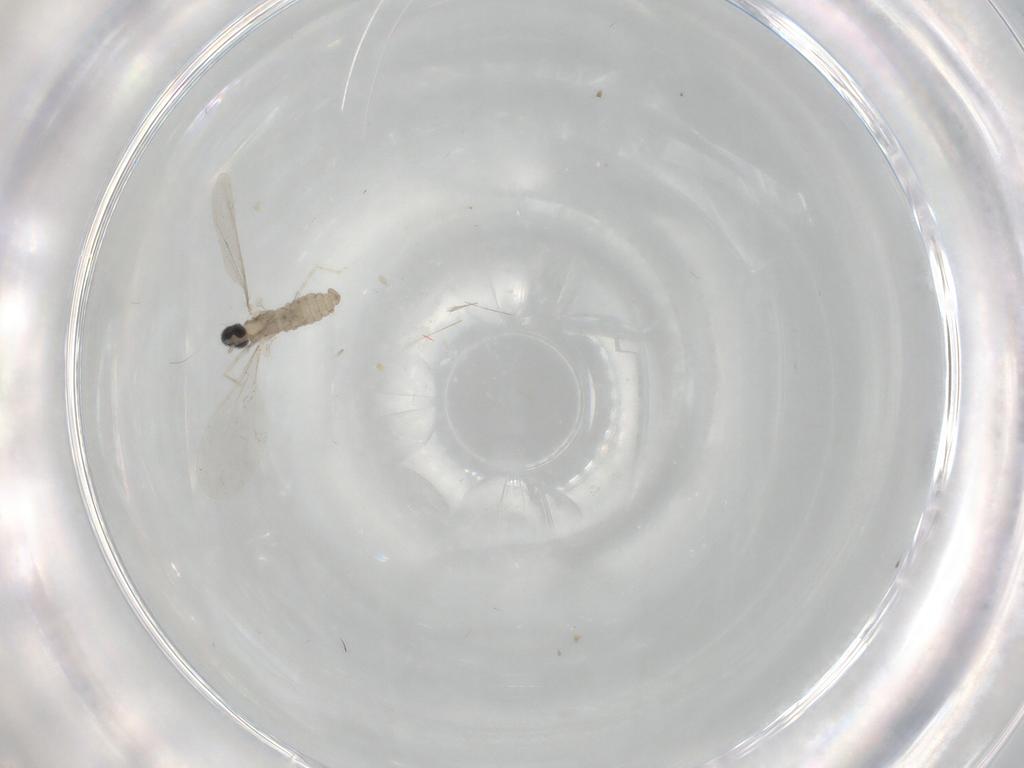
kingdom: Animalia
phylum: Arthropoda
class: Insecta
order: Diptera
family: Cecidomyiidae
